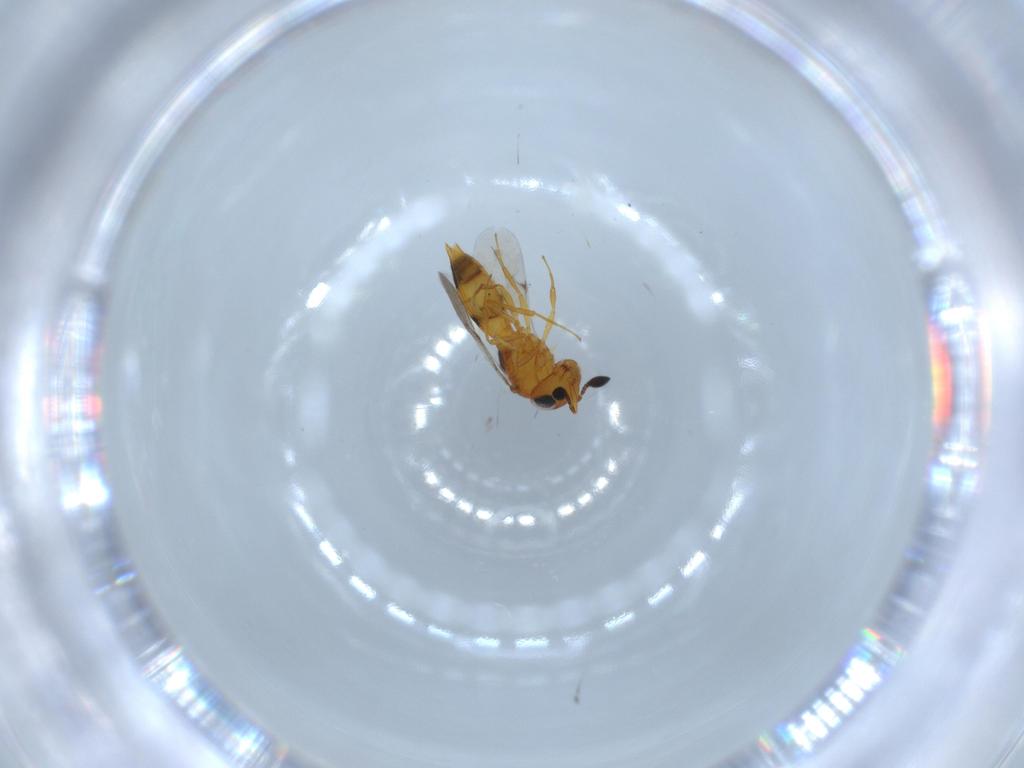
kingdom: Animalia
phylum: Arthropoda
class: Insecta
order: Hymenoptera
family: Scelionidae
